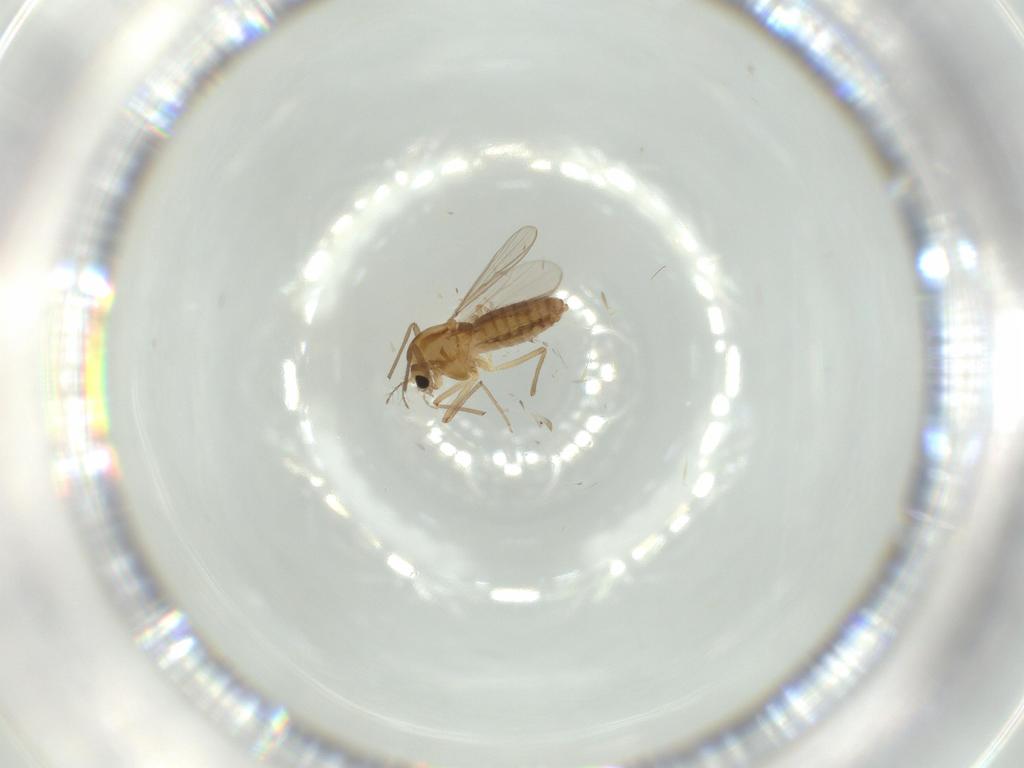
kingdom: Animalia
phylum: Arthropoda
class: Insecta
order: Diptera
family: Chironomidae
